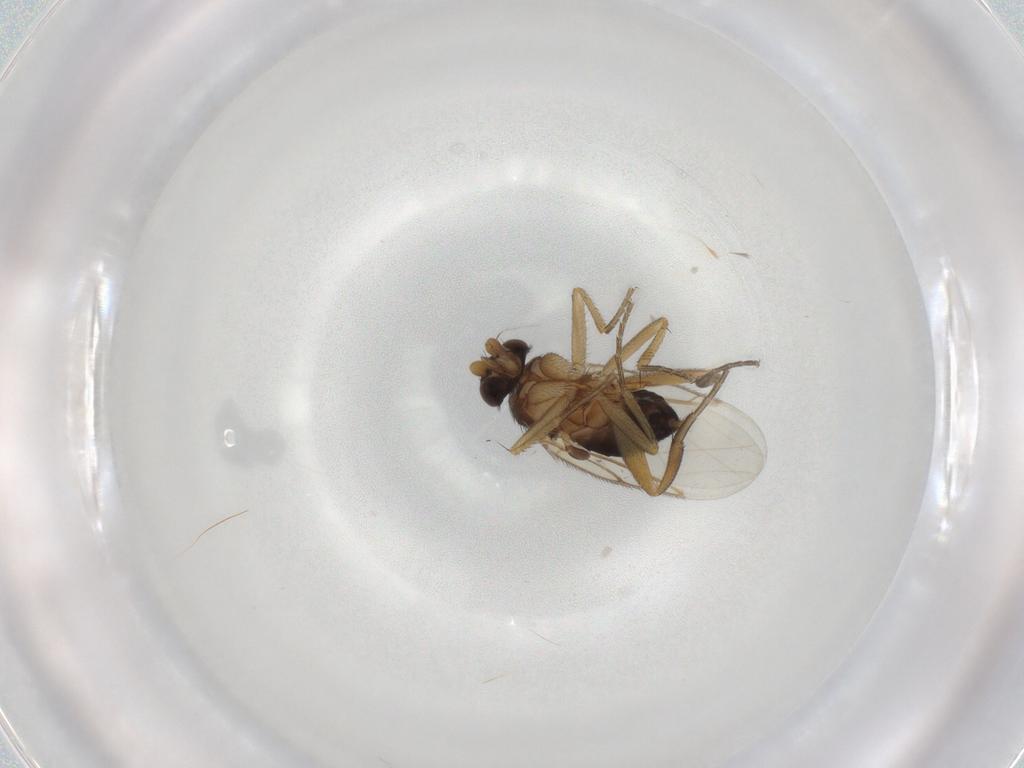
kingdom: Animalia
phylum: Arthropoda
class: Insecta
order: Diptera
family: Phoridae
